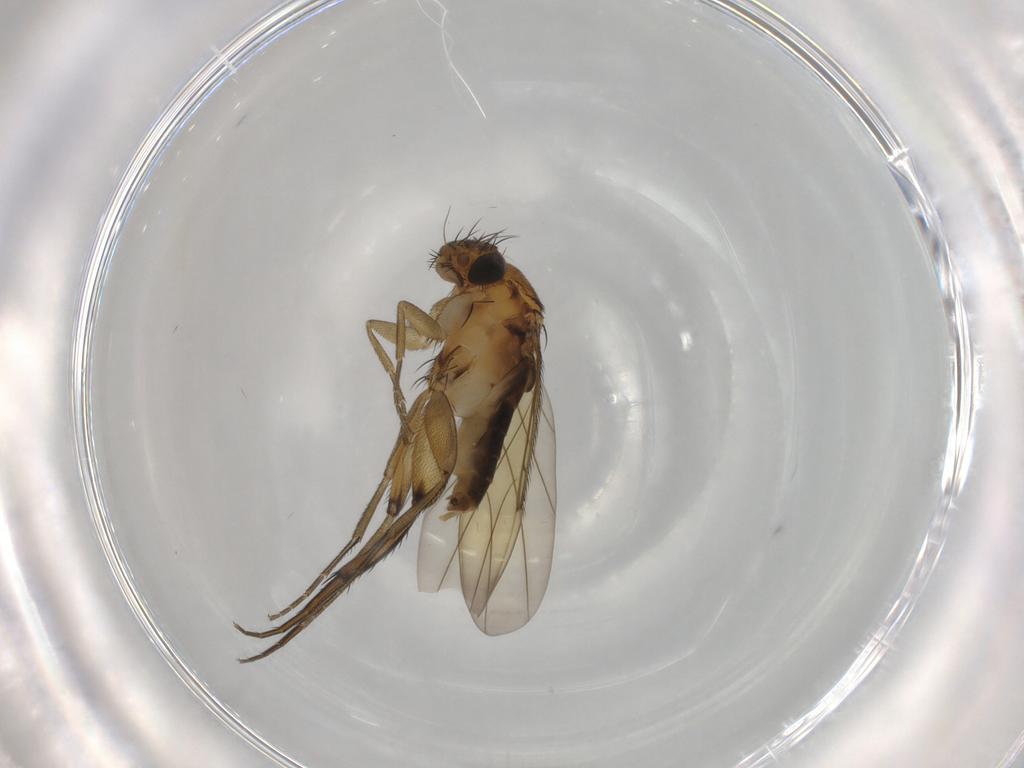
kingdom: Animalia
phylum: Arthropoda
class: Insecta
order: Diptera
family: Phoridae
